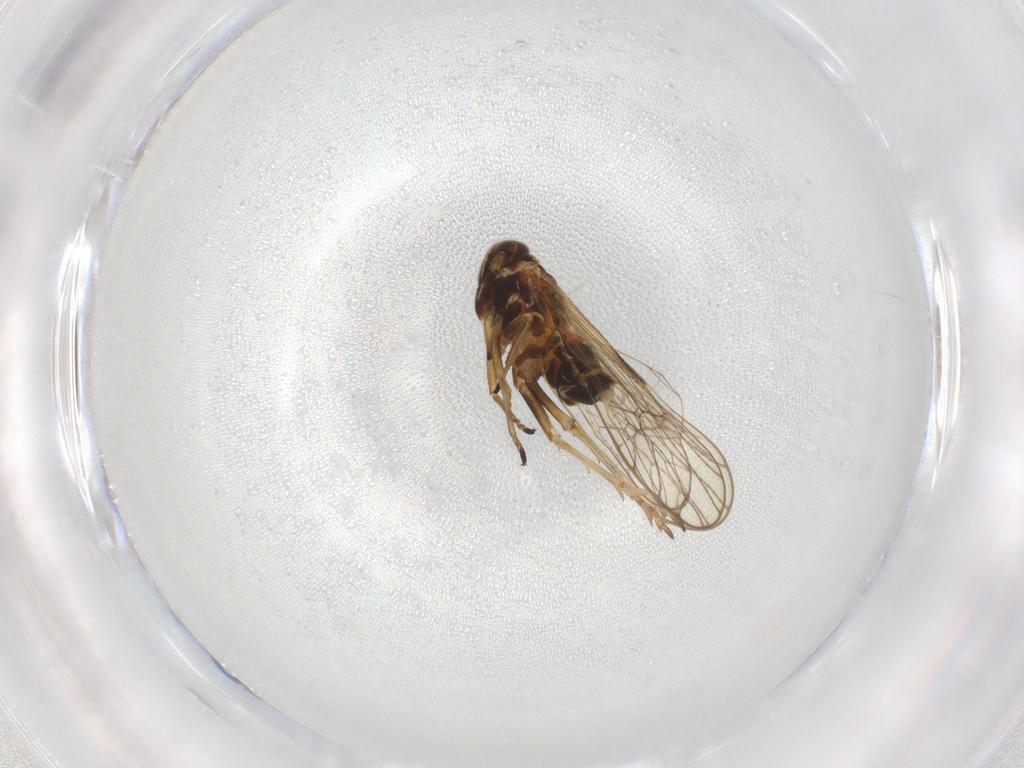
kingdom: Animalia
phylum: Arthropoda
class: Insecta
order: Hemiptera
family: Delphacidae
